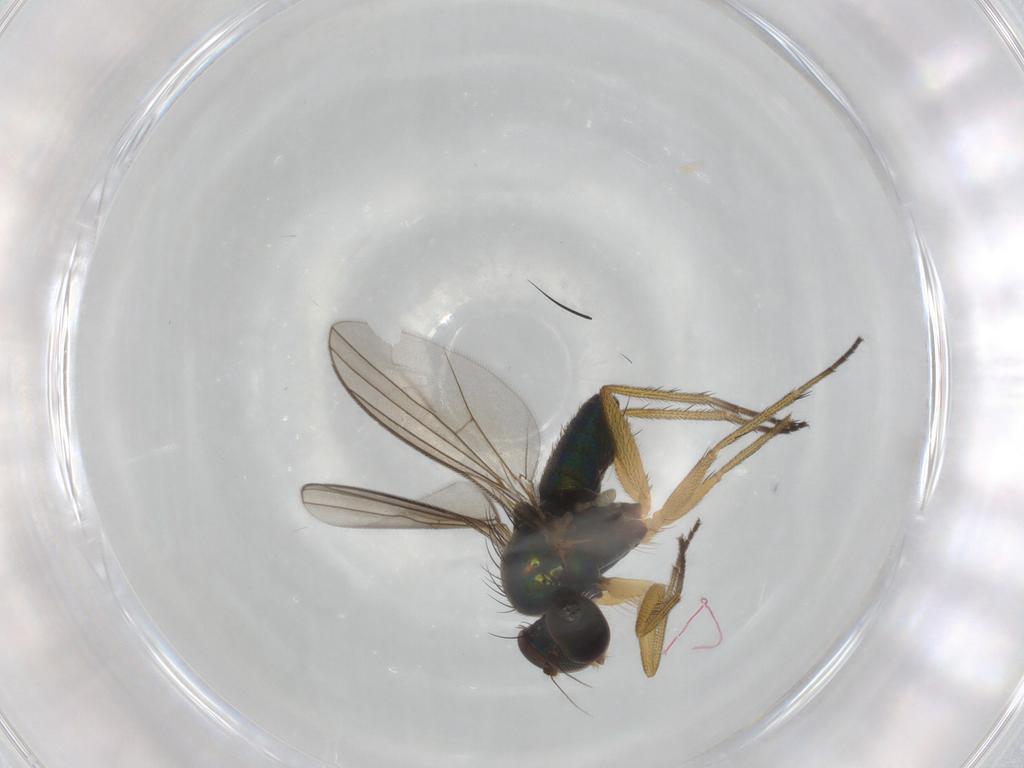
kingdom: Animalia
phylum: Arthropoda
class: Insecta
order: Diptera
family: Dolichopodidae
